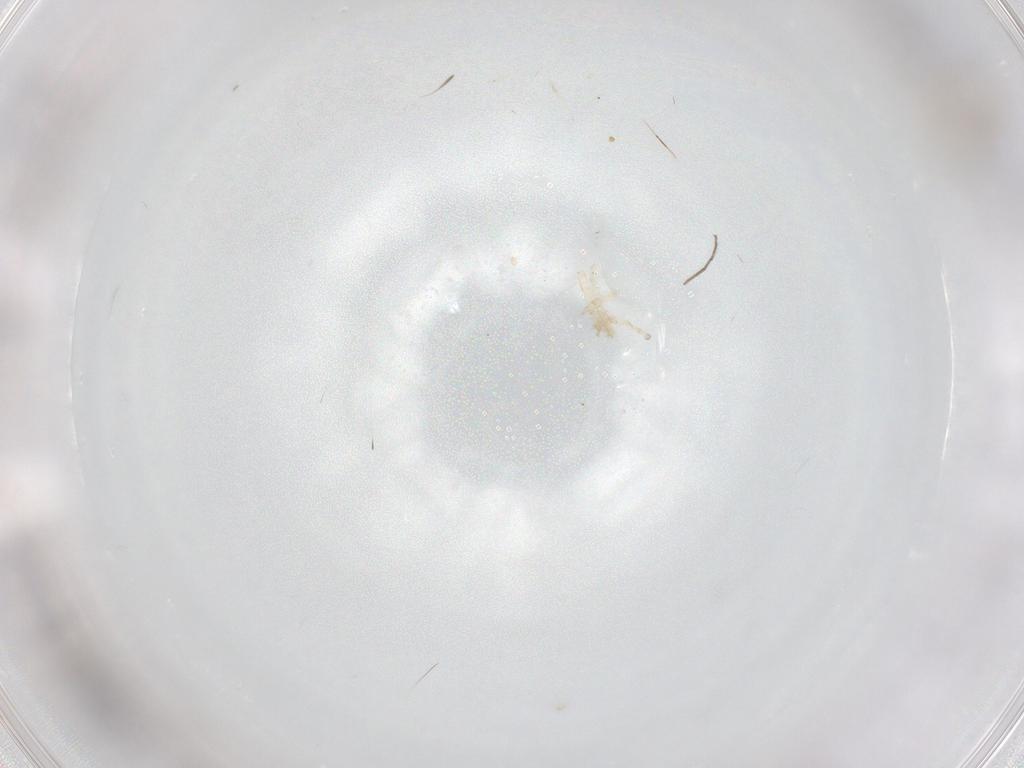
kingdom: Animalia
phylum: Arthropoda
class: Insecta
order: Diptera
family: Chironomidae
